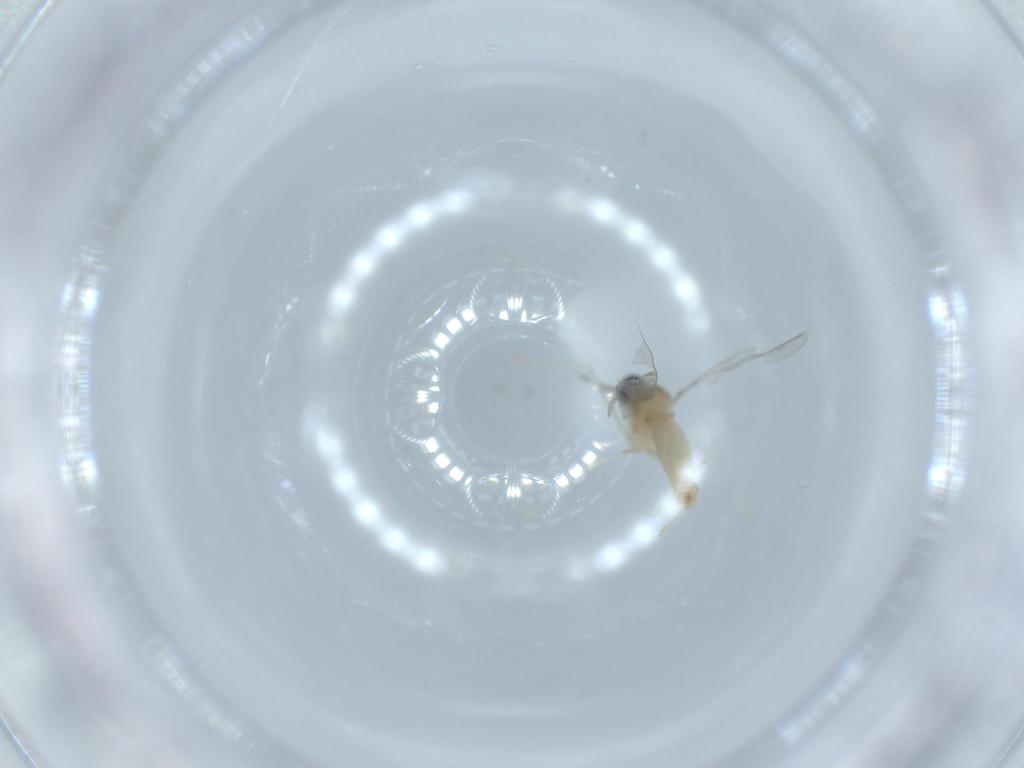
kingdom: Animalia
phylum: Arthropoda
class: Insecta
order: Diptera
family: Cecidomyiidae
